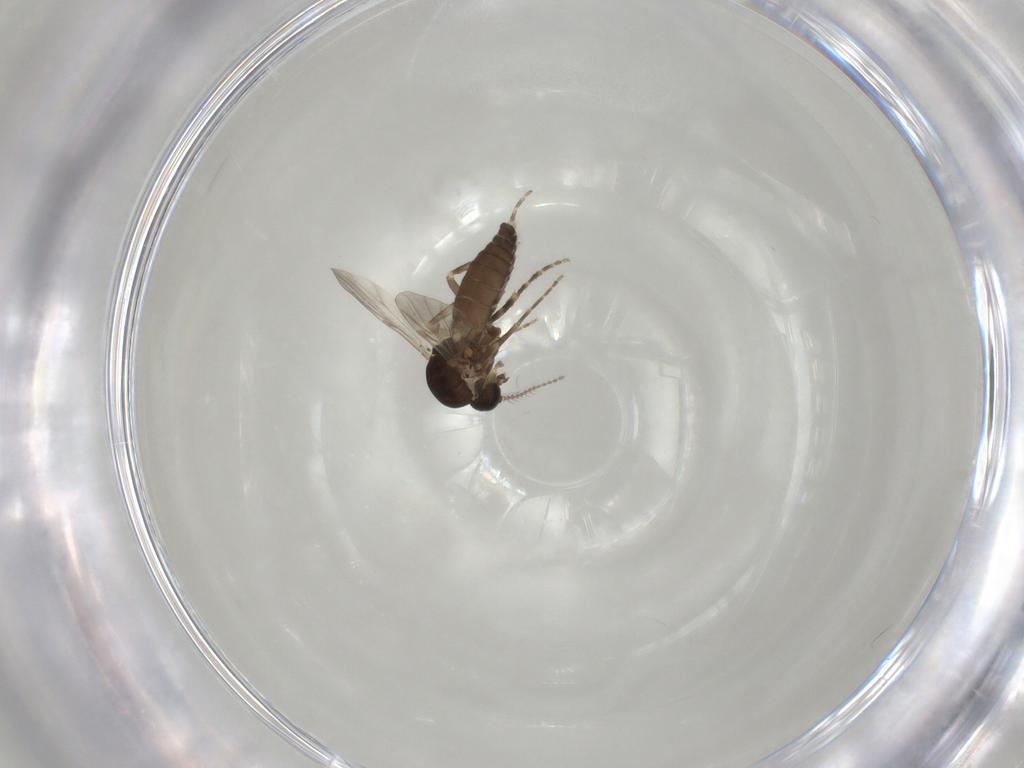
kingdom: Animalia
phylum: Arthropoda
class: Insecta
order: Diptera
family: Ceratopogonidae
